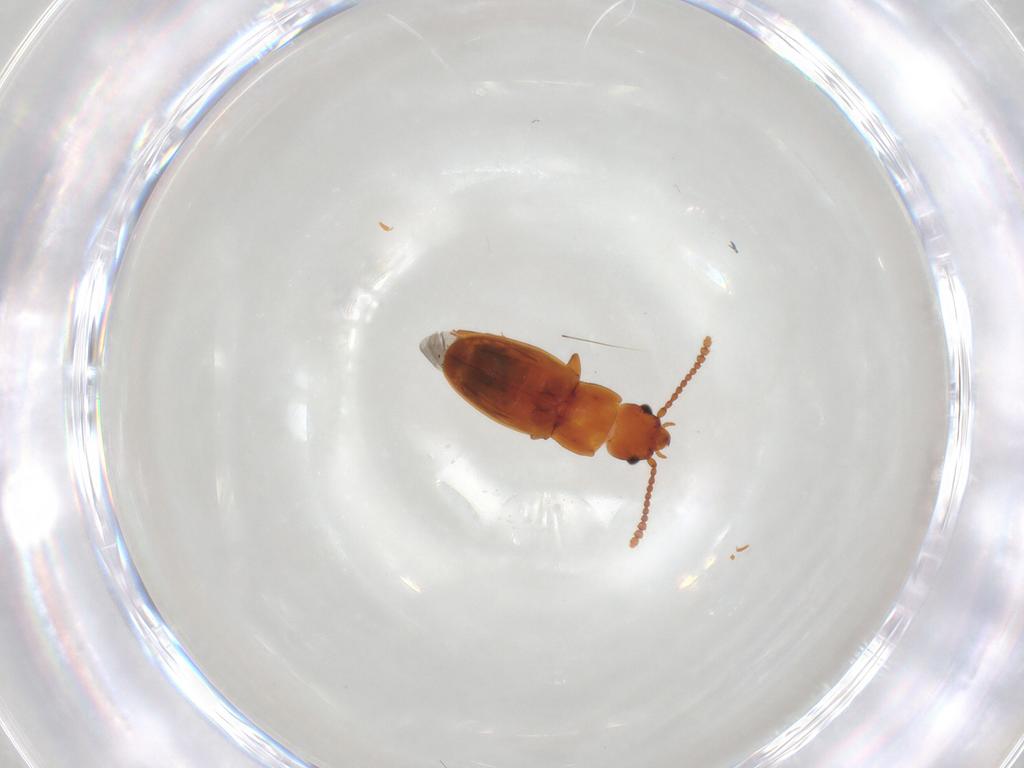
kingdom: Animalia
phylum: Arthropoda
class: Insecta
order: Coleoptera
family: Laemophloeidae
